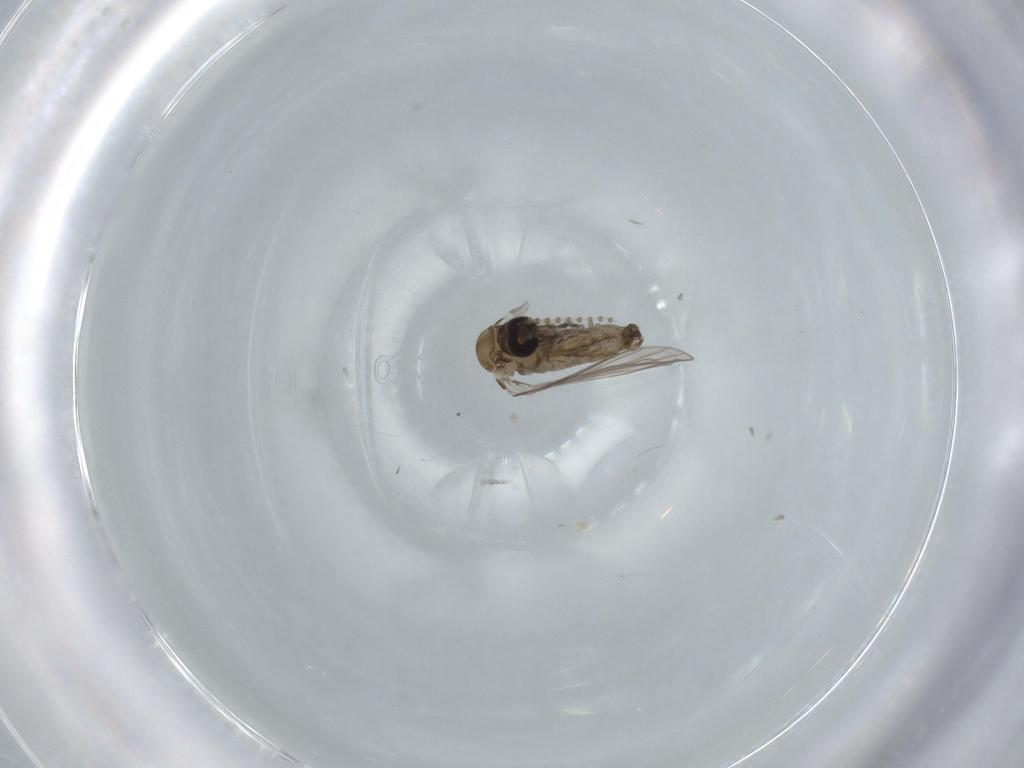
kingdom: Animalia
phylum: Arthropoda
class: Insecta
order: Diptera
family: Psychodidae
